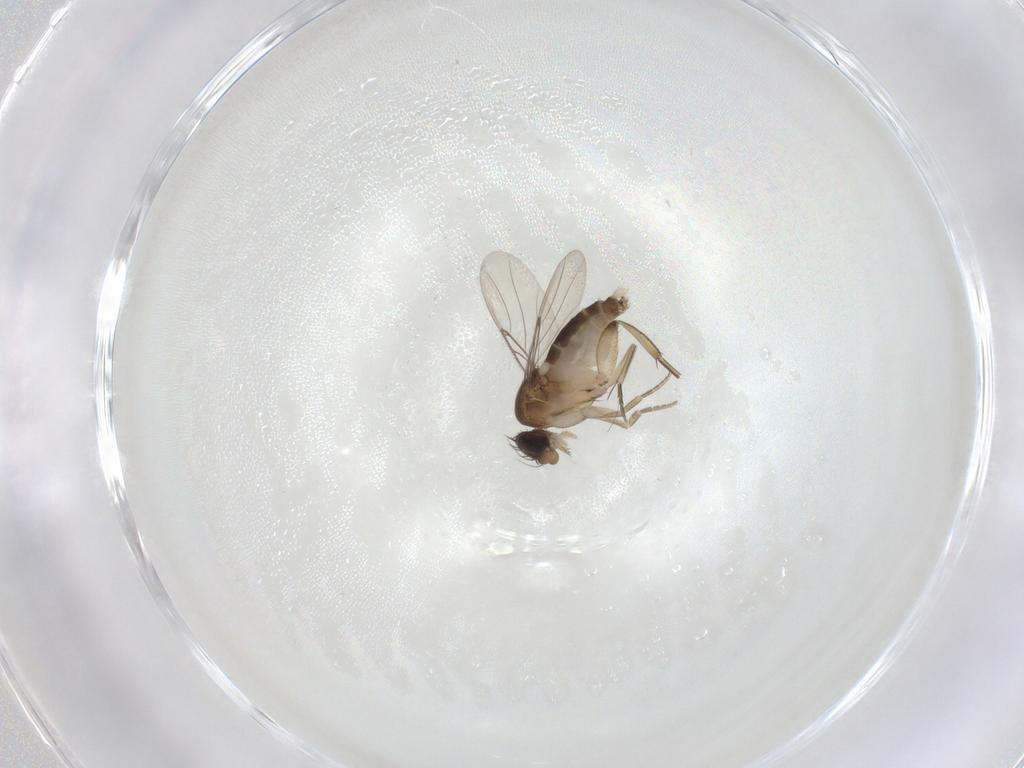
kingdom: Animalia
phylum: Arthropoda
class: Insecta
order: Diptera
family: Phoridae
